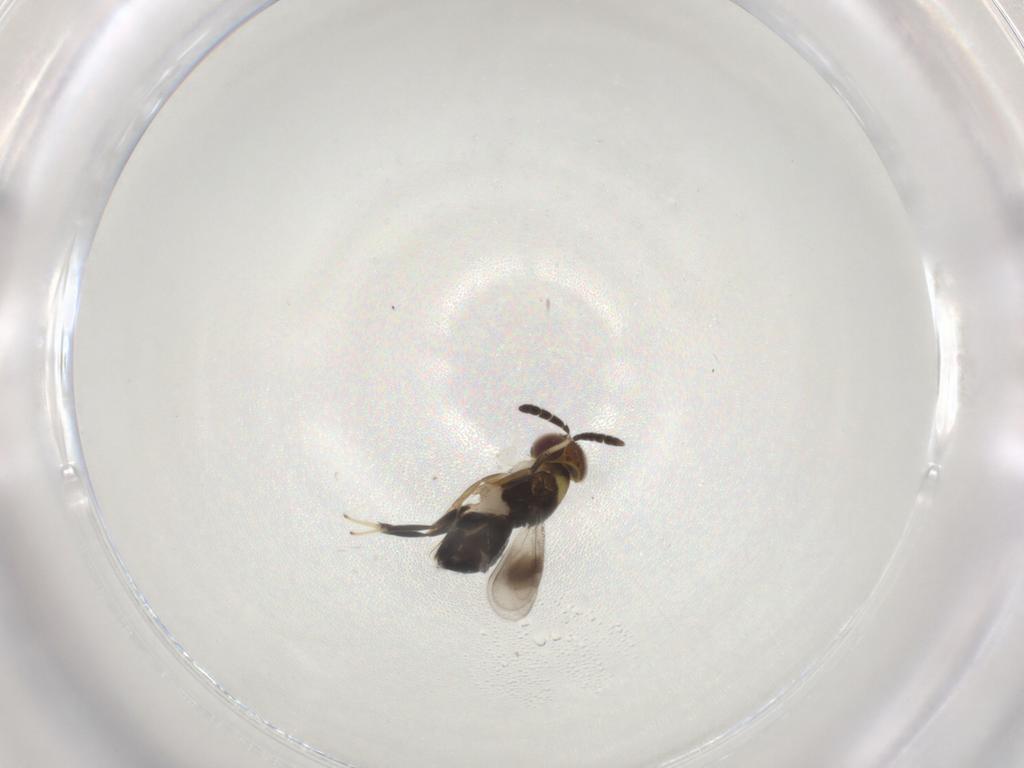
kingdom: Animalia
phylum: Arthropoda
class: Insecta
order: Hymenoptera
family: Aphelinidae
